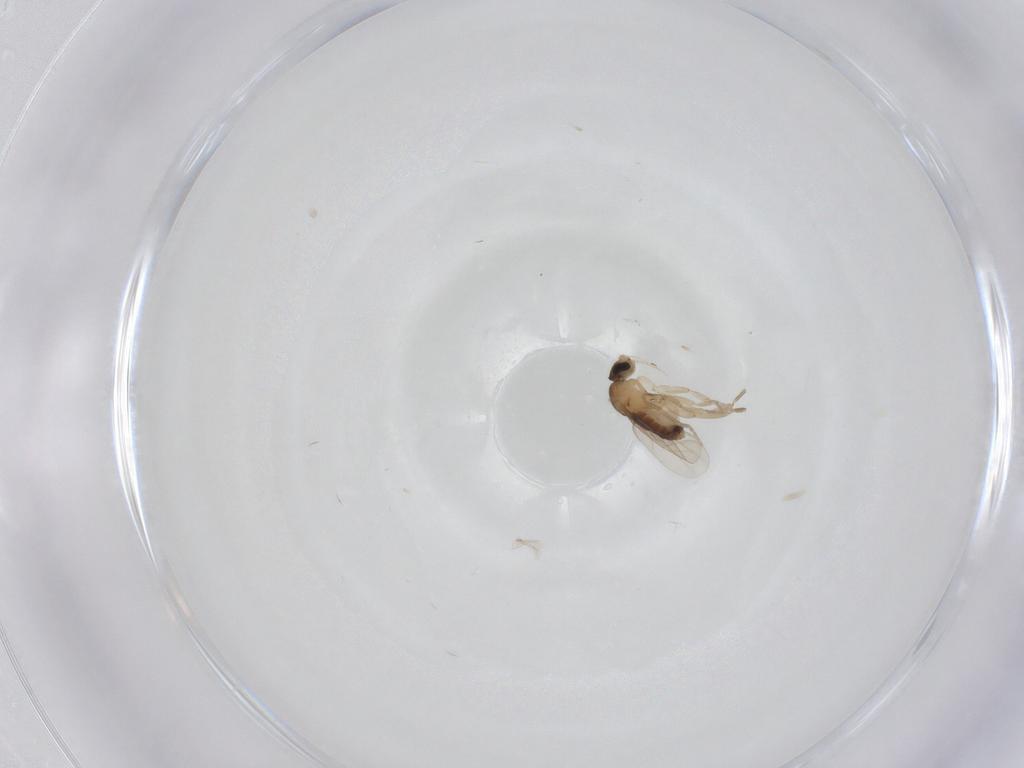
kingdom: Animalia
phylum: Arthropoda
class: Insecta
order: Diptera
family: Phoridae
